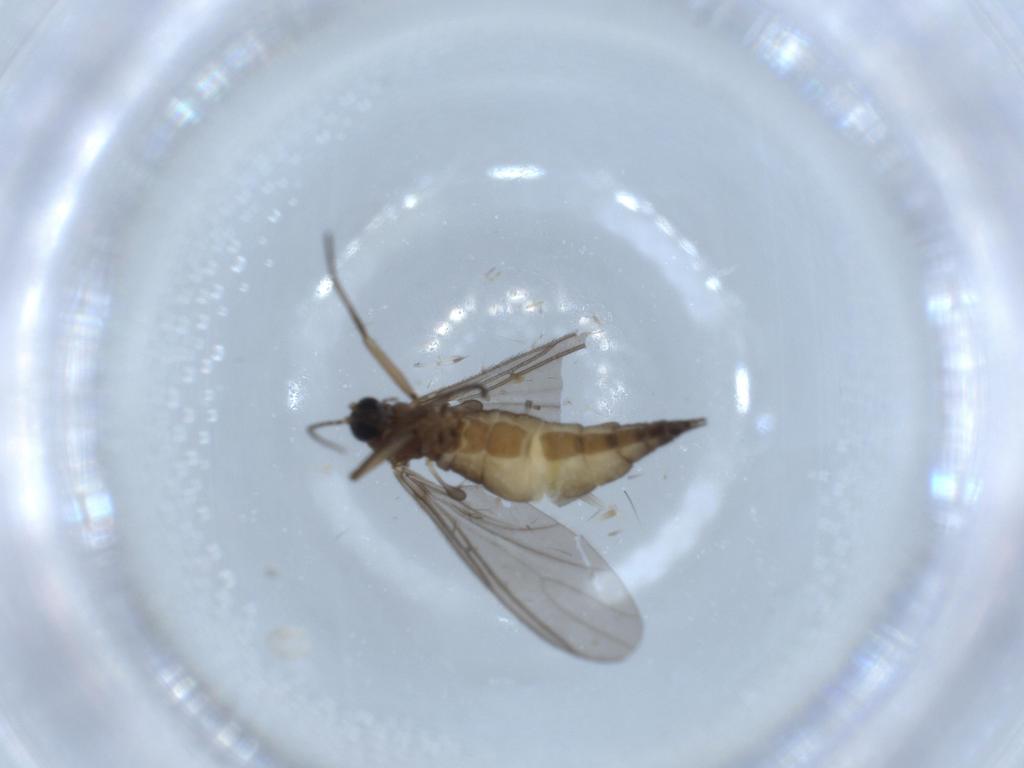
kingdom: Animalia
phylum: Arthropoda
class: Insecta
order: Diptera
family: Sciaridae
